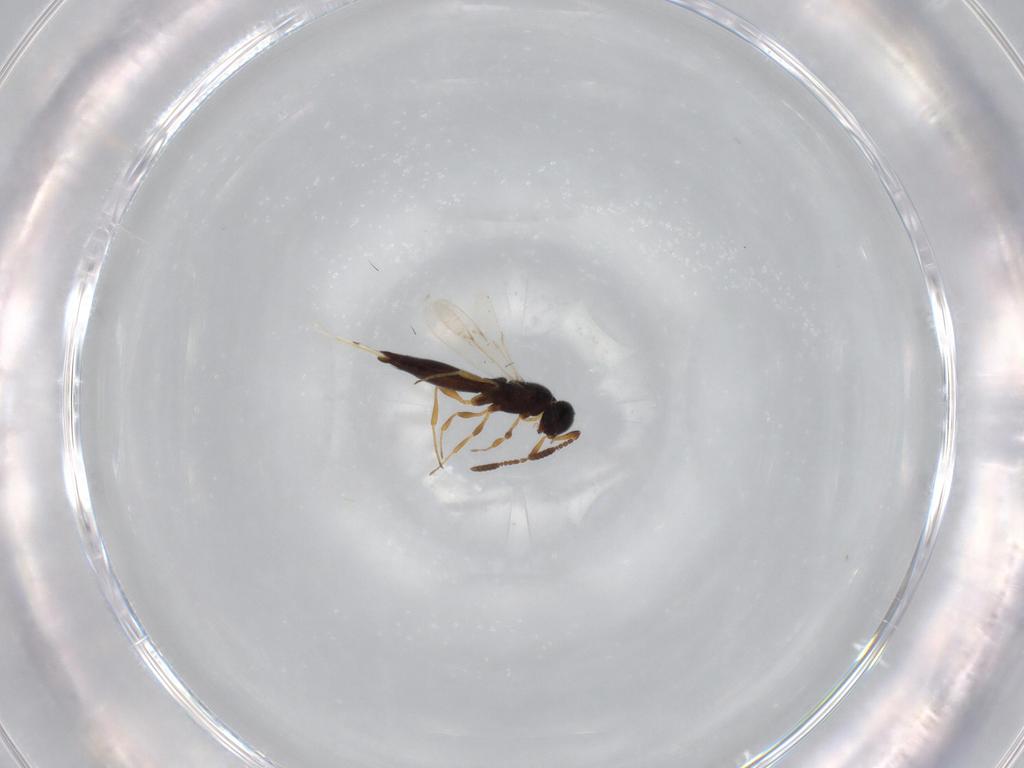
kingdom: Animalia
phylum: Arthropoda
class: Insecta
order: Hymenoptera
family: Scelionidae
